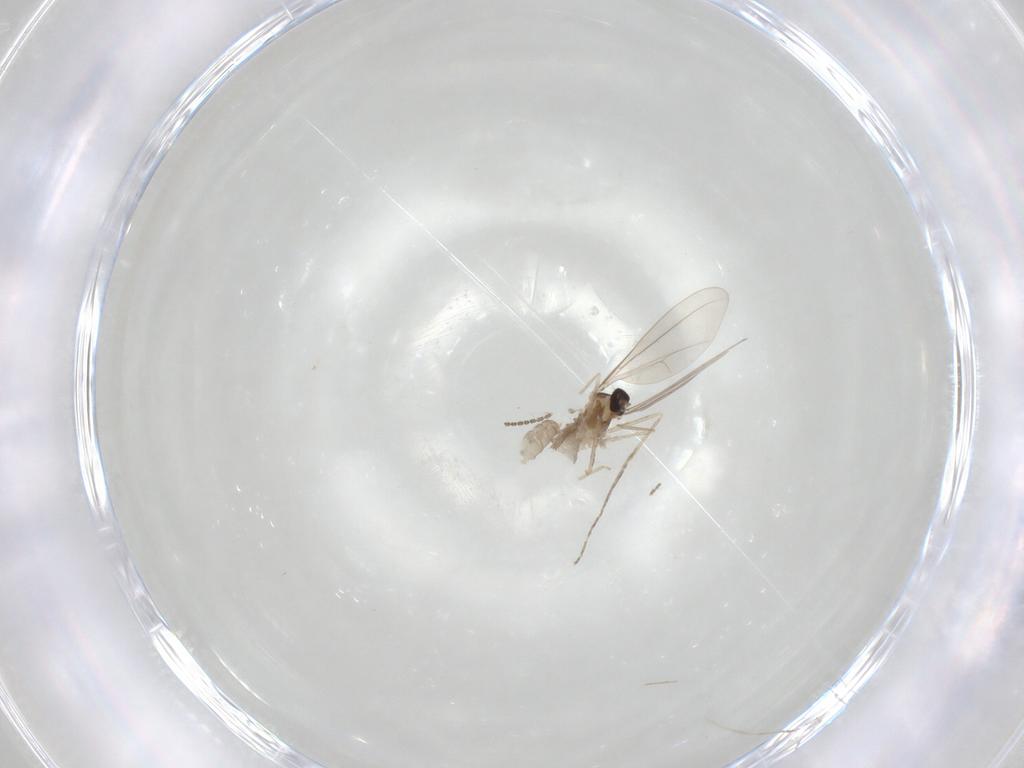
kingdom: Animalia
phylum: Arthropoda
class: Insecta
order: Diptera
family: Cecidomyiidae
